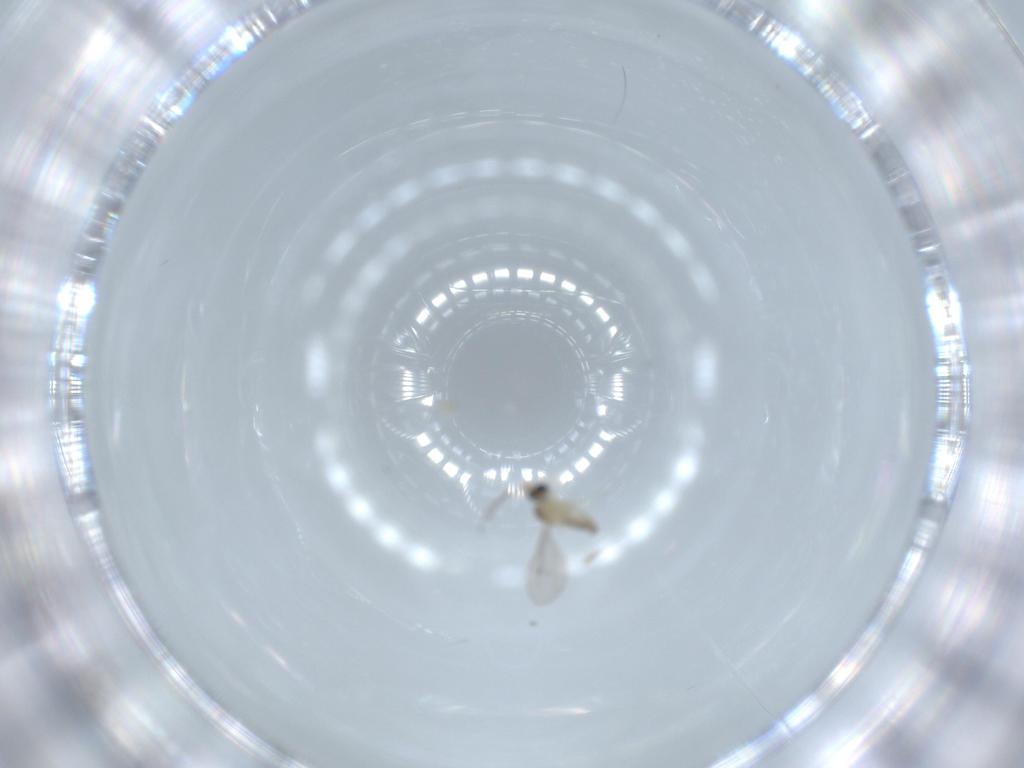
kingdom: Animalia
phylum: Arthropoda
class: Insecta
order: Diptera
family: Cecidomyiidae
